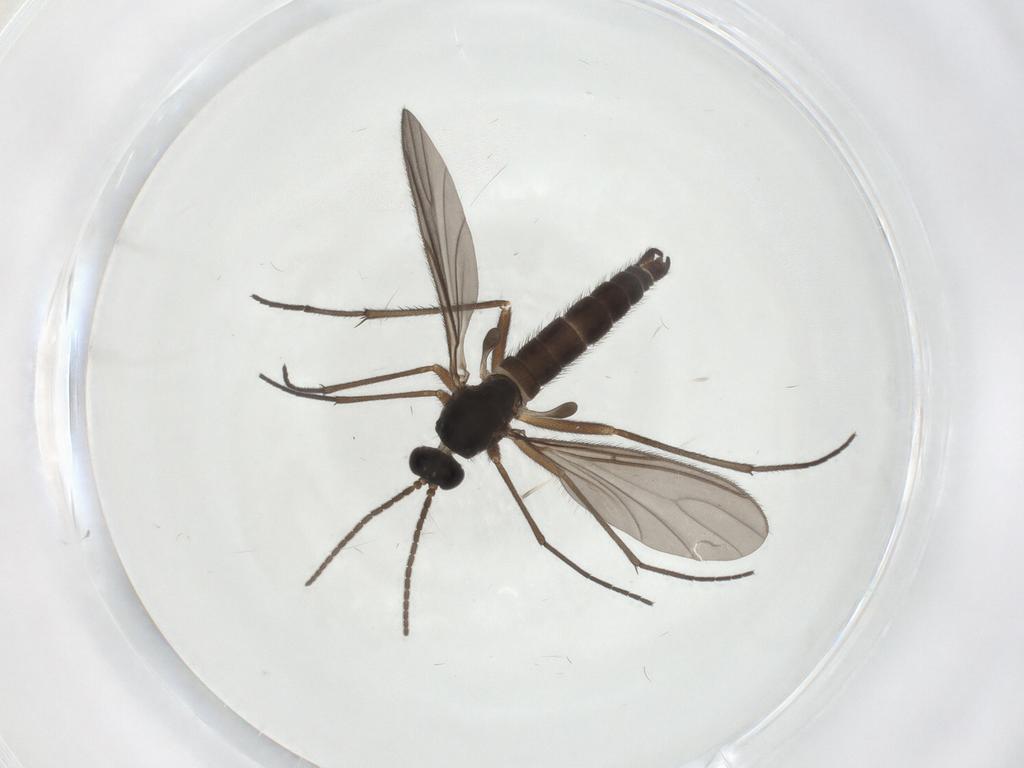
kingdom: Animalia
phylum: Arthropoda
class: Insecta
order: Diptera
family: Sciaridae
